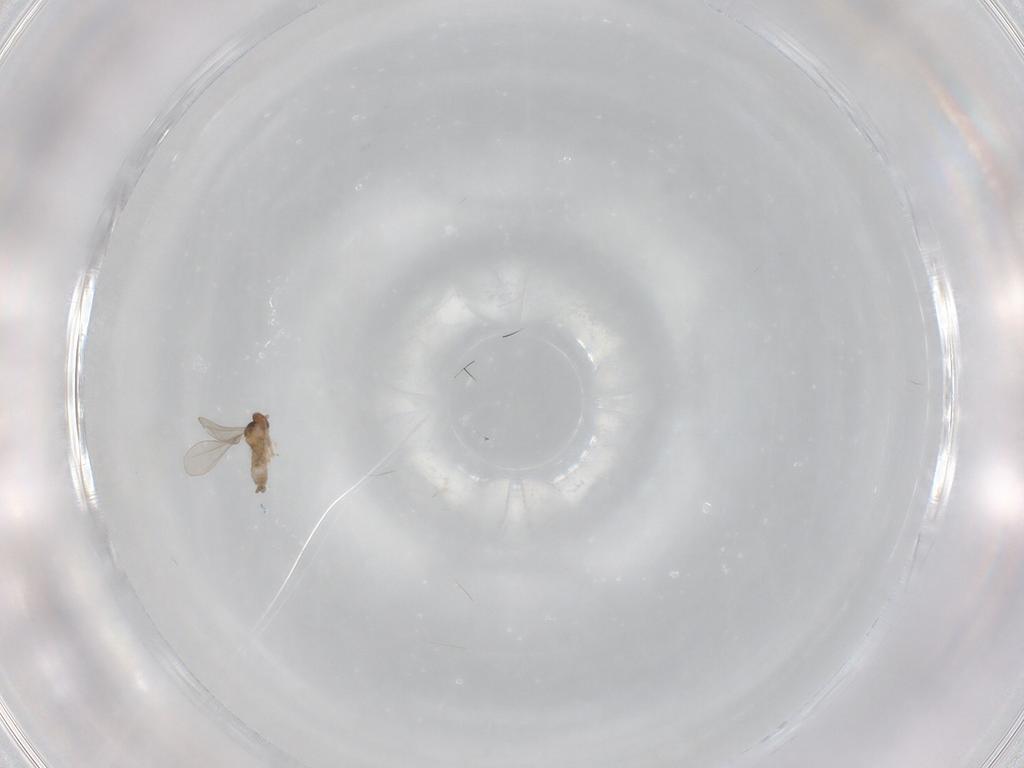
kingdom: Animalia
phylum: Arthropoda
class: Insecta
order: Diptera
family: Cecidomyiidae
